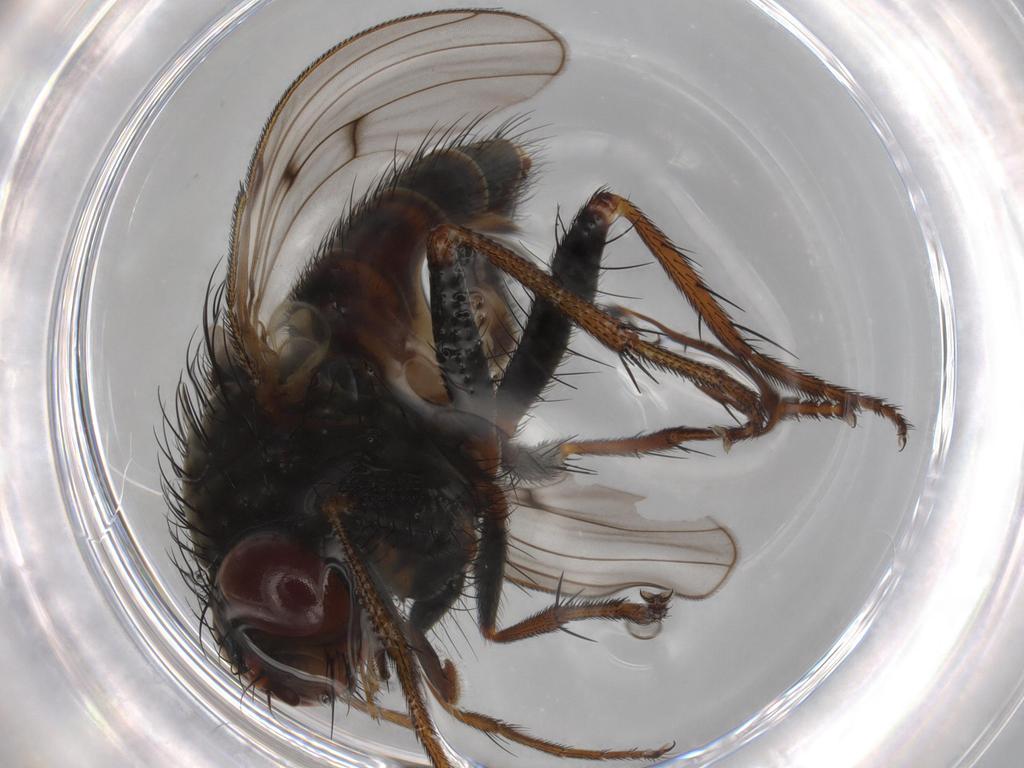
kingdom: Animalia
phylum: Arthropoda
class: Insecta
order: Diptera
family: Muscidae
